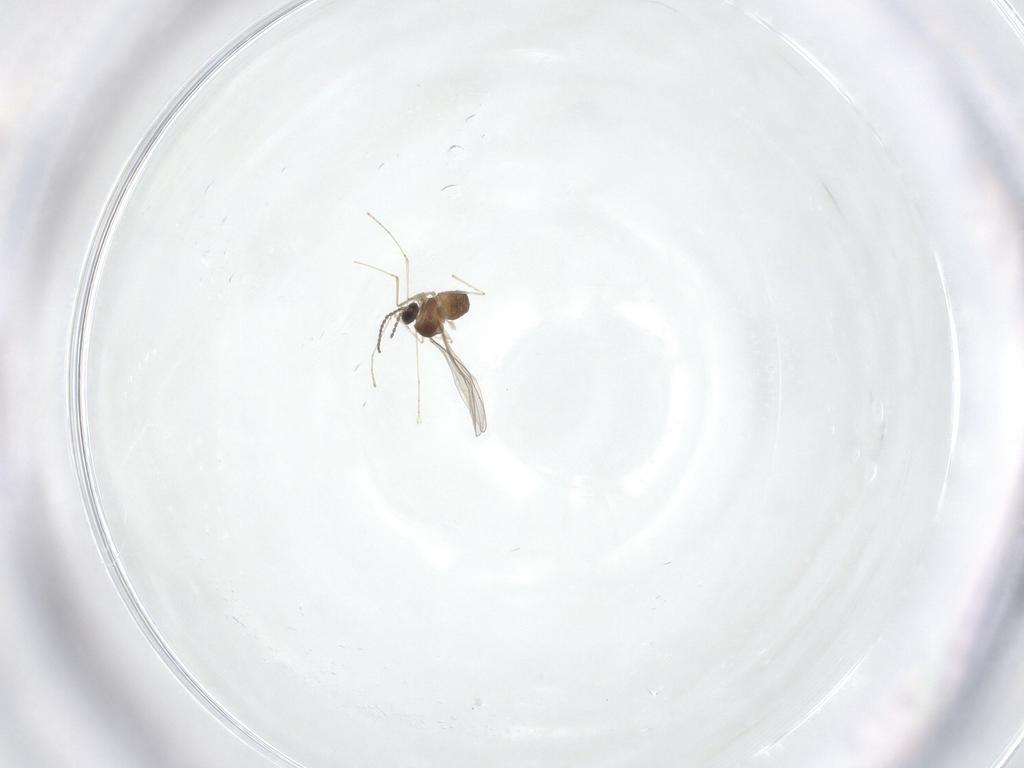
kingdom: Animalia
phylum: Arthropoda
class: Insecta
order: Diptera
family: Cecidomyiidae
